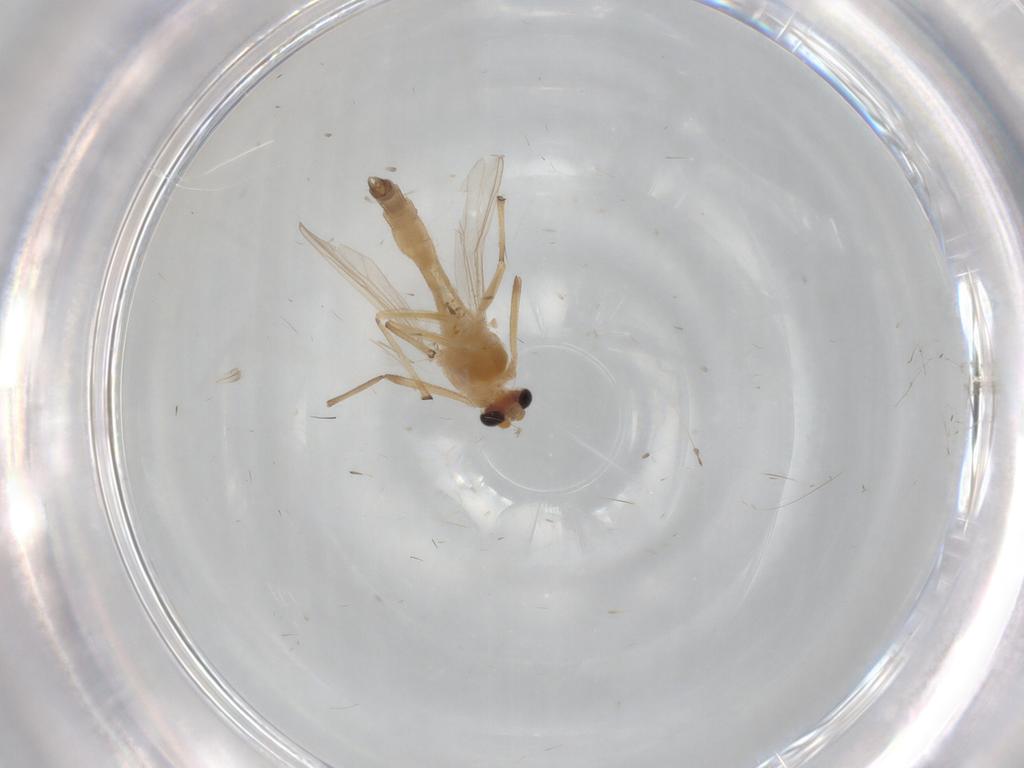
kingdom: Animalia
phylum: Arthropoda
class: Insecta
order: Diptera
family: Chironomidae
